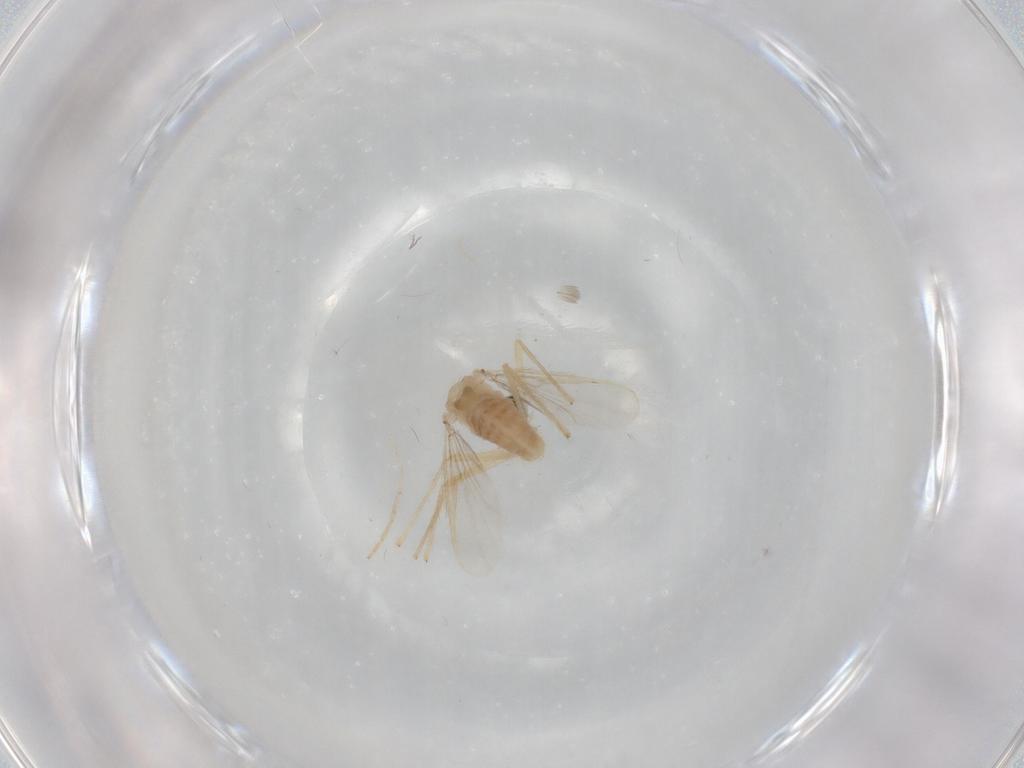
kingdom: Animalia
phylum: Arthropoda
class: Insecta
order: Diptera
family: Chironomidae
